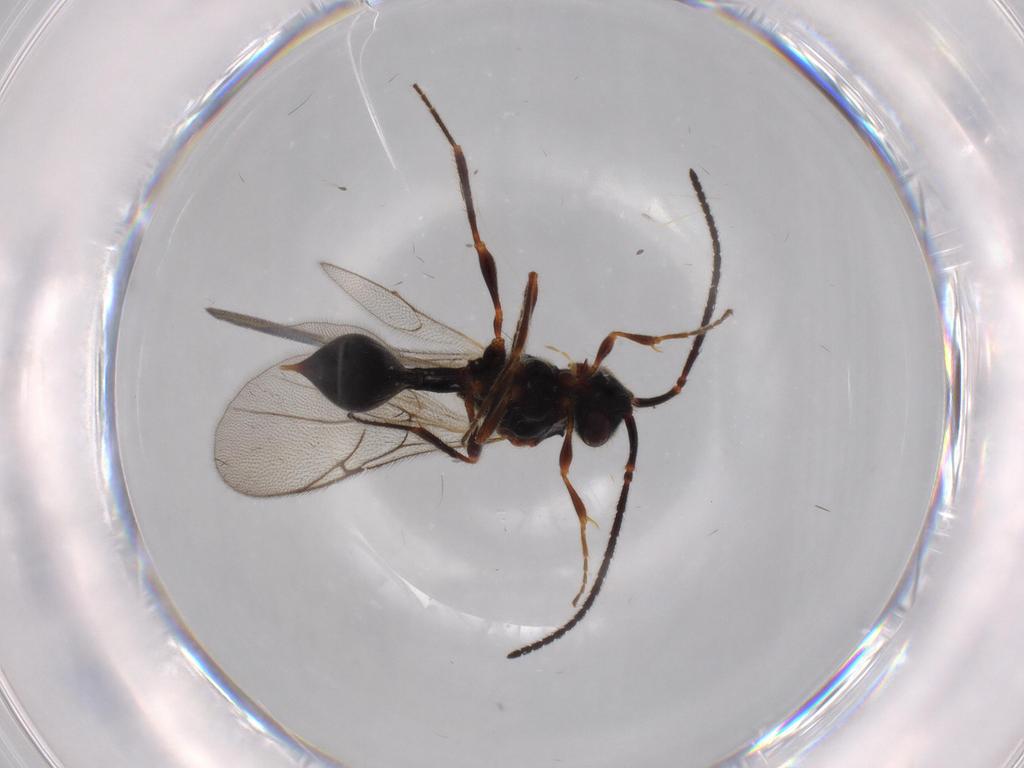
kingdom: Animalia
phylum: Arthropoda
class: Insecta
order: Hymenoptera
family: Diapriidae
